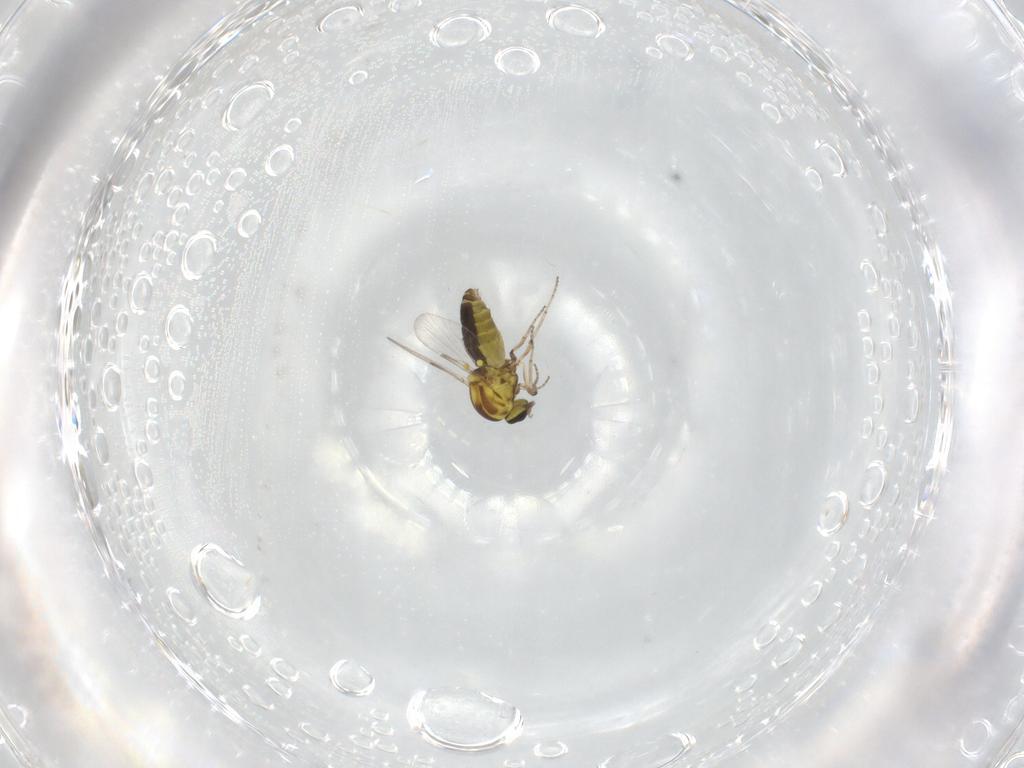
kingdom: Animalia
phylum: Arthropoda
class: Insecta
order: Diptera
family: Ceratopogonidae
